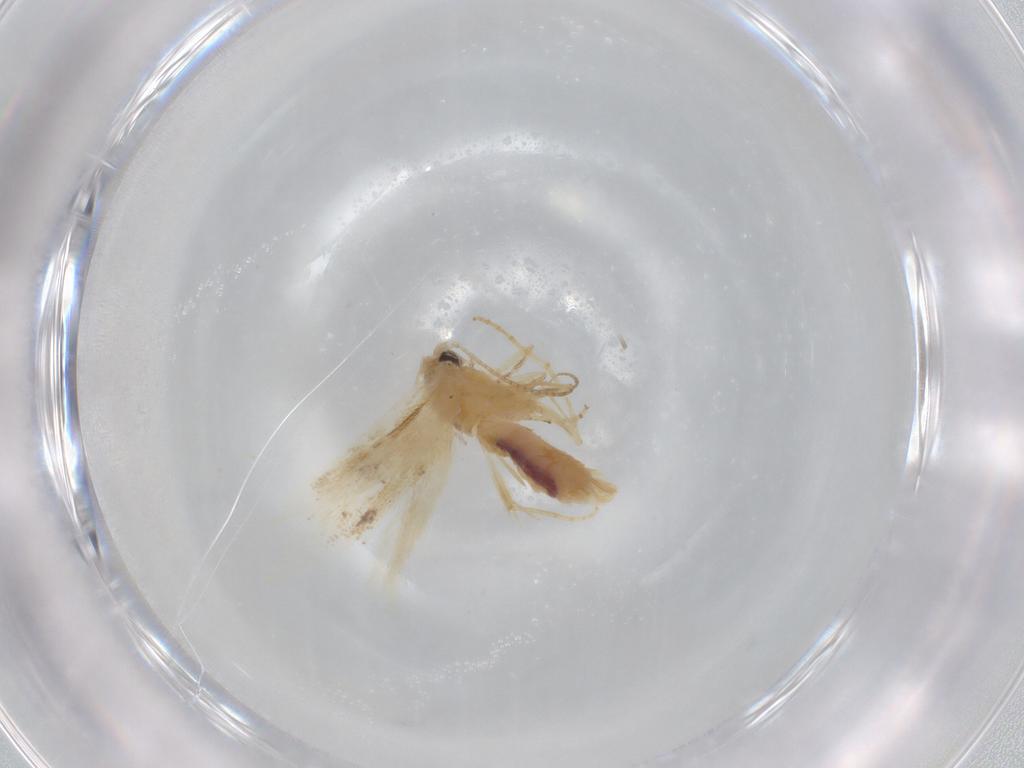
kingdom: Animalia
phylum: Arthropoda
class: Insecta
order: Lepidoptera
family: Bucculatricidae
